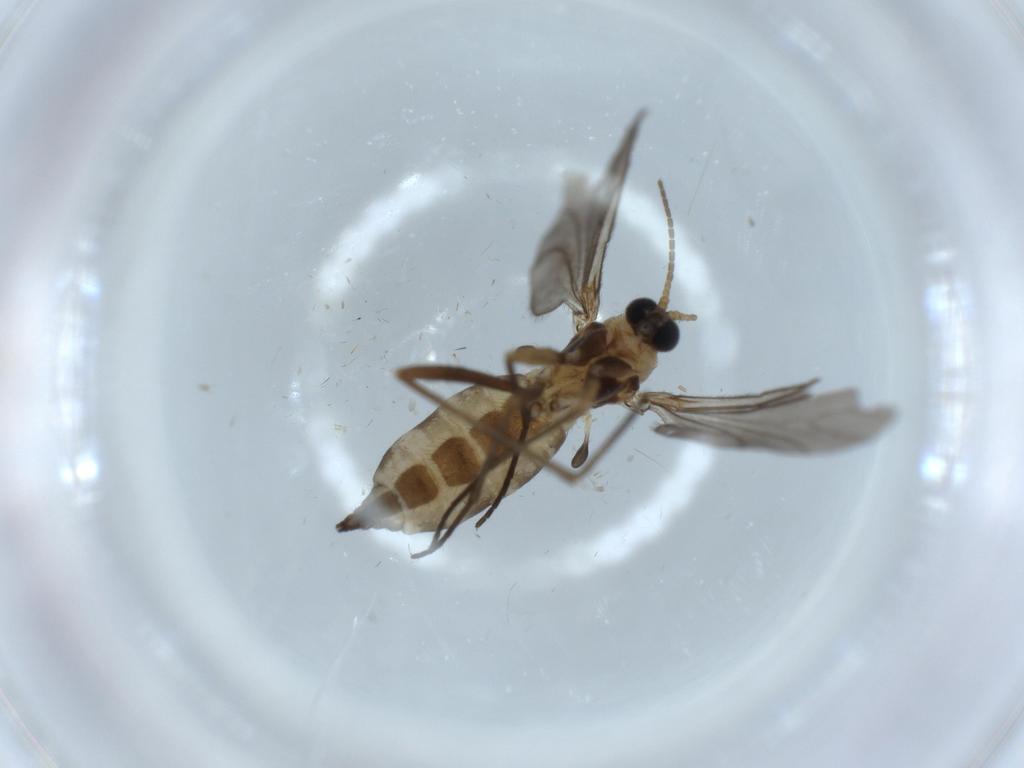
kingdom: Animalia
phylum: Arthropoda
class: Insecta
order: Diptera
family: Sciaridae
